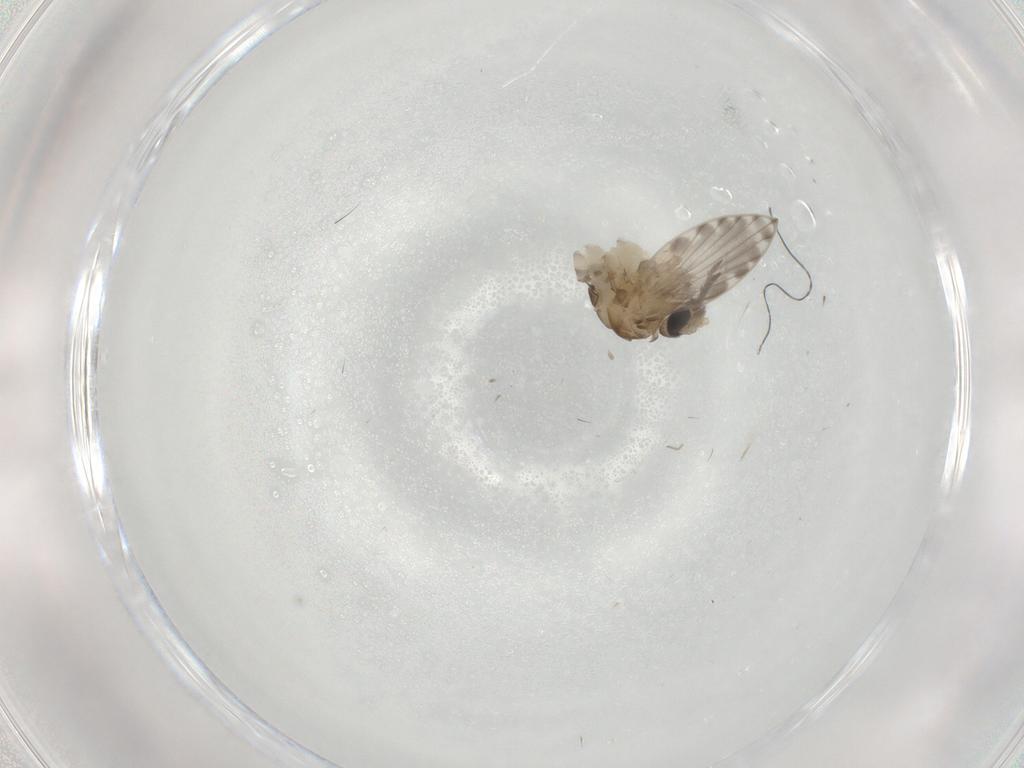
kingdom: Animalia
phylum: Arthropoda
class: Insecta
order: Diptera
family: Psychodidae
